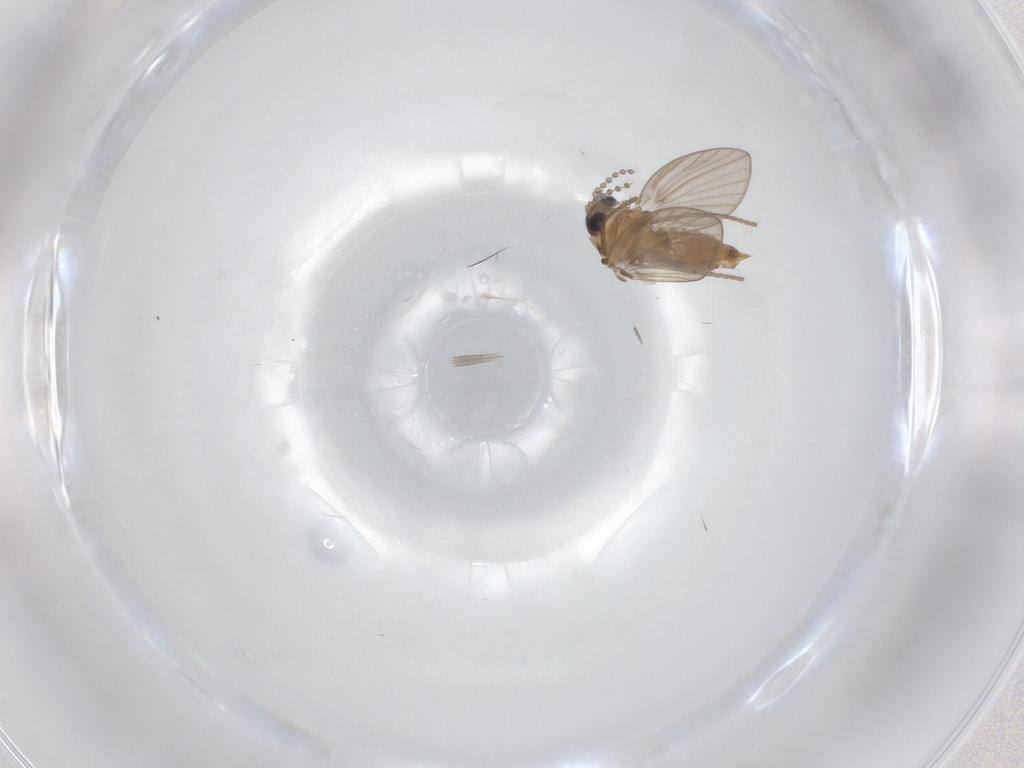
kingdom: Animalia
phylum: Arthropoda
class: Insecta
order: Diptera
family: Psychodidae
